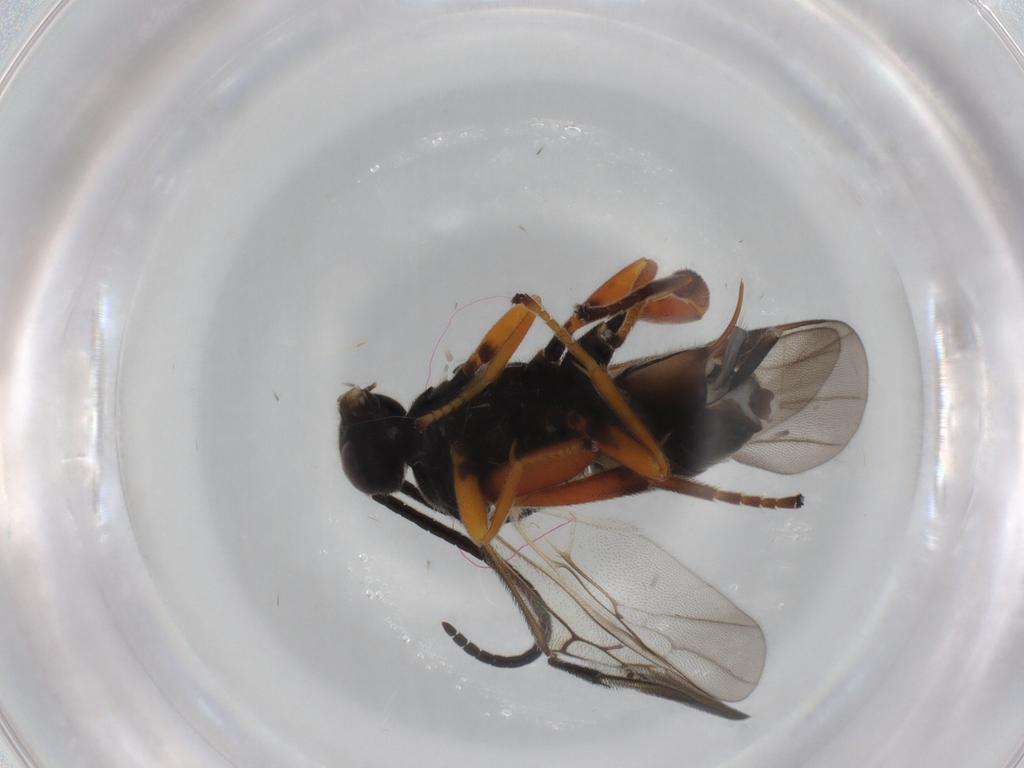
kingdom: Animalia
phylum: Arthropoda
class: Insecta
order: Hymenoptera
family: Braconidae
